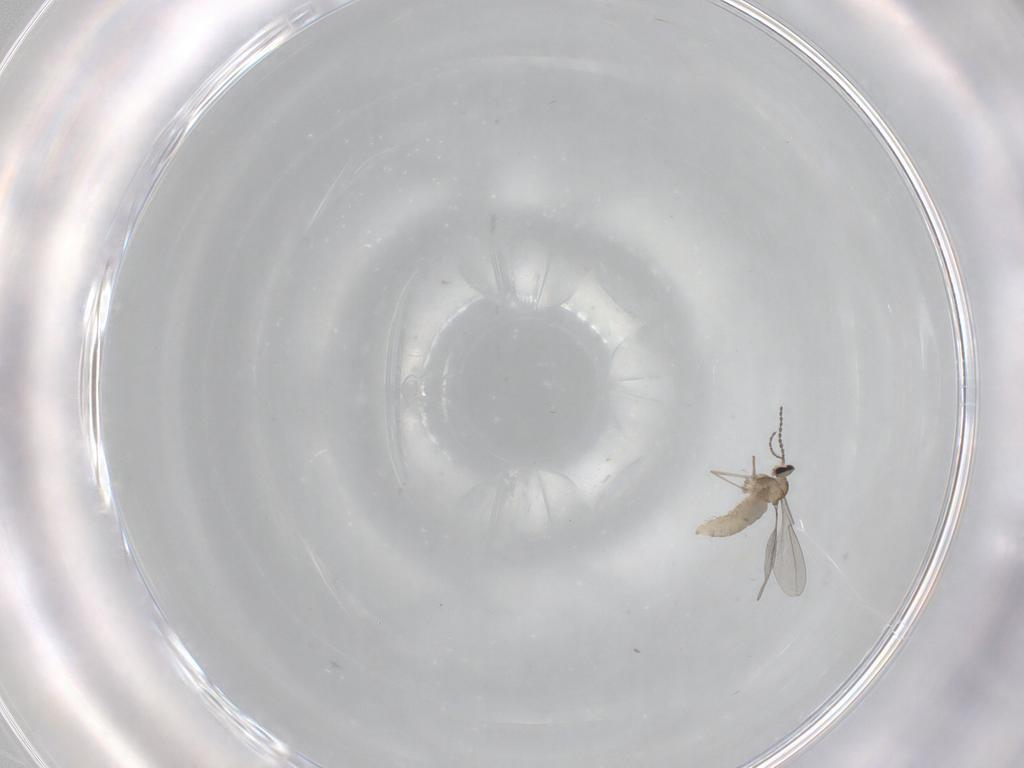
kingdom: Animalia
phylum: Arthropoda
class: Insecta
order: Diptera
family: Cecidomyiidae
